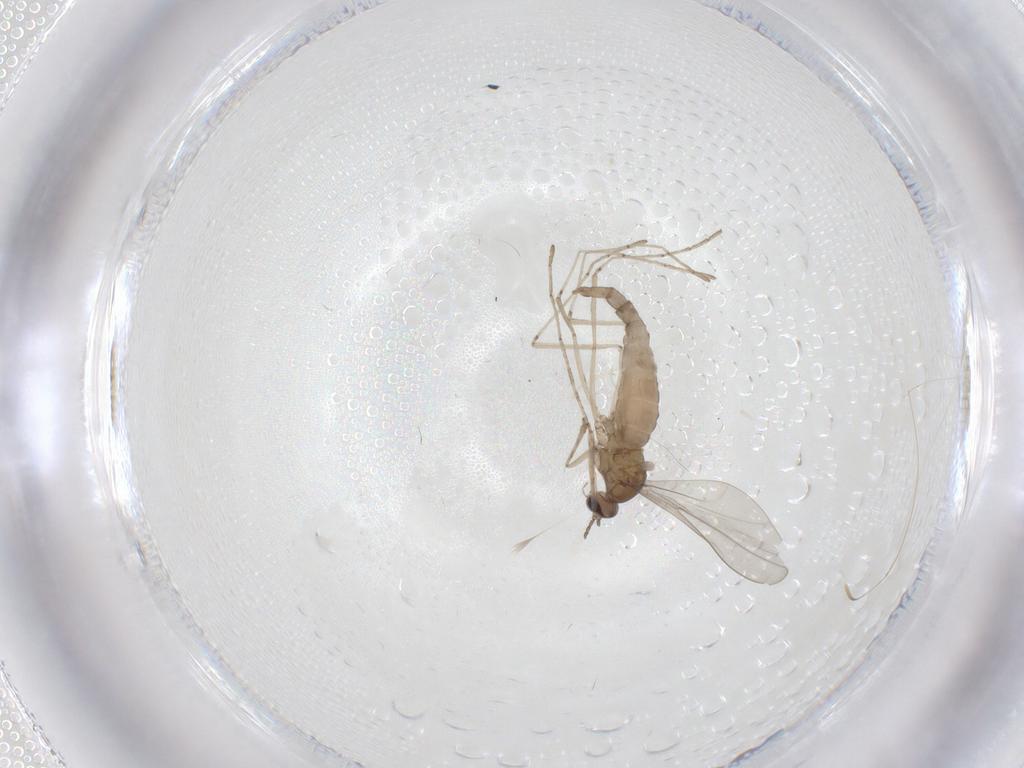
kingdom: Animalia
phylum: Arthropoda
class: Insecta
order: Diptera
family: Cecidomyiidae
